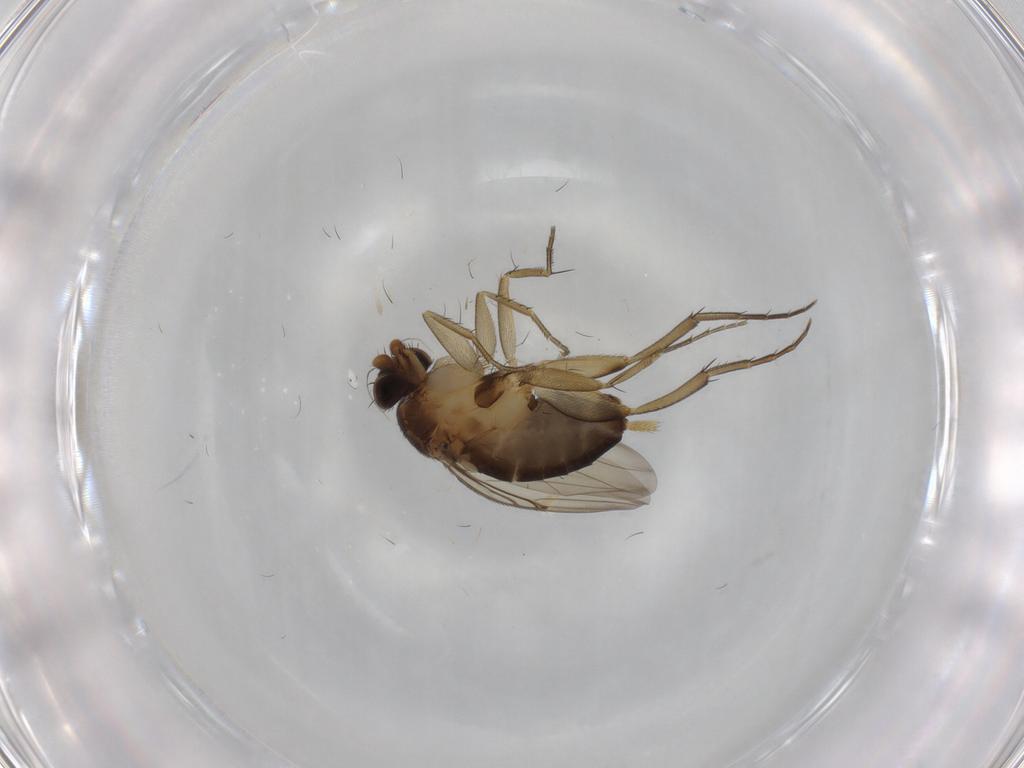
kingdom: Animalia
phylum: Arthropoda
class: Insecta
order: Diptera
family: Phoridae
